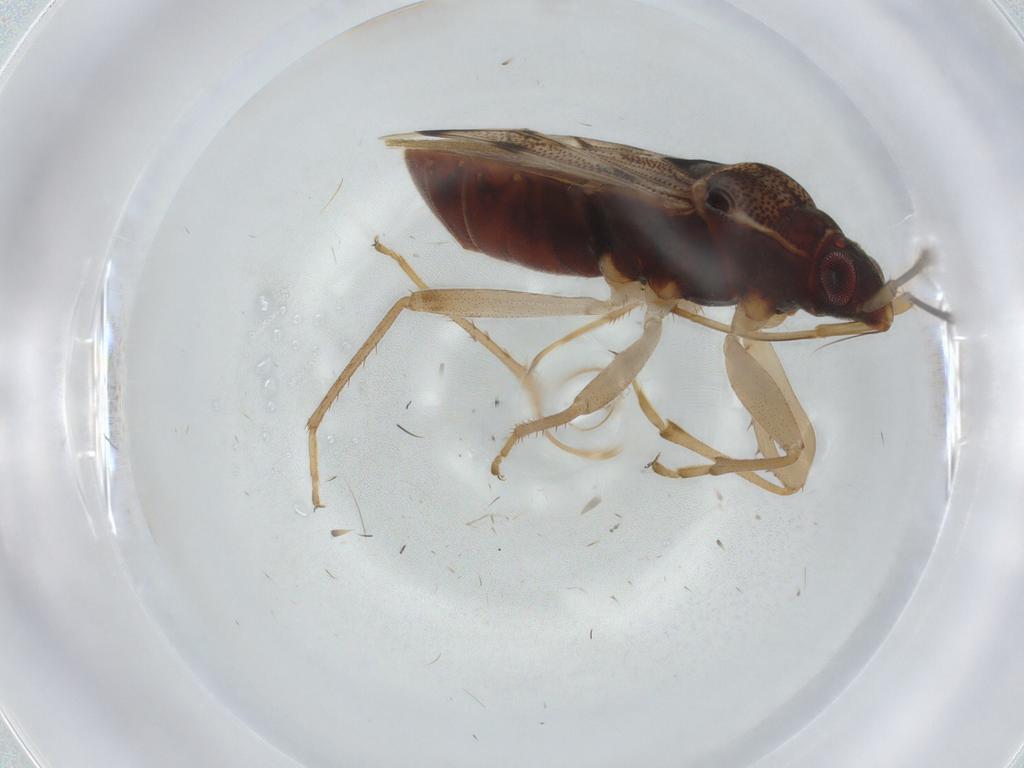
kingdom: Animalia
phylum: Arthropoda
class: Insecta
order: Hemiptera
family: Rhyparochromidae
